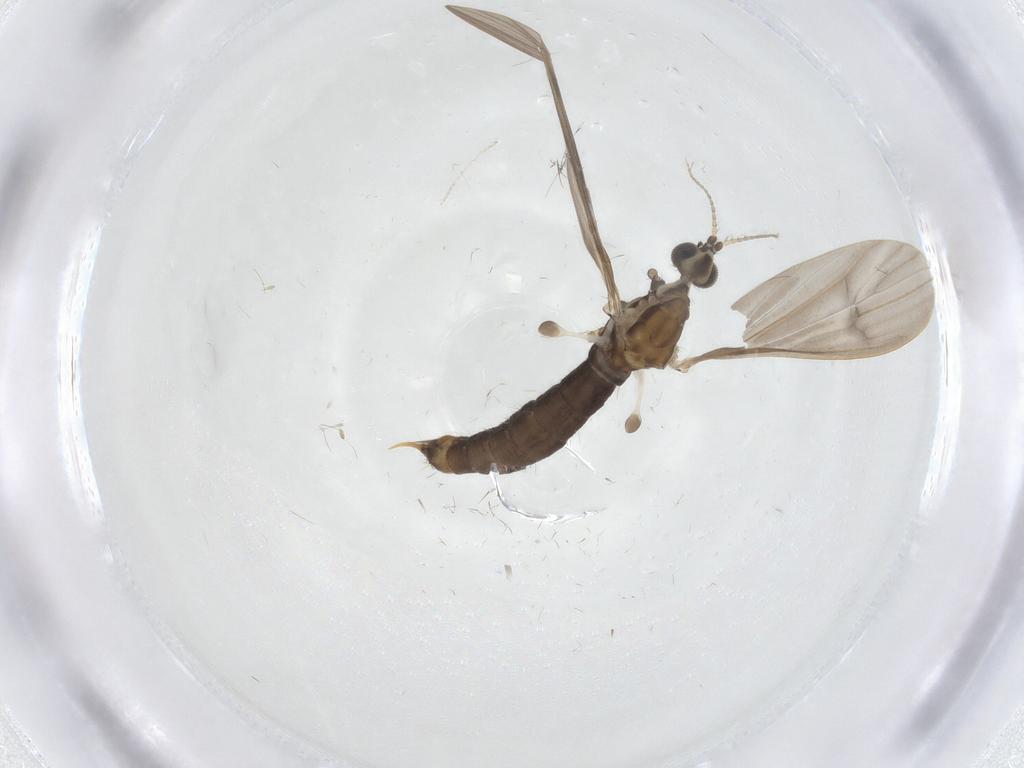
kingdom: Animalia
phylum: Arthropoda
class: Insecta
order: Diptera
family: Limoniidae
